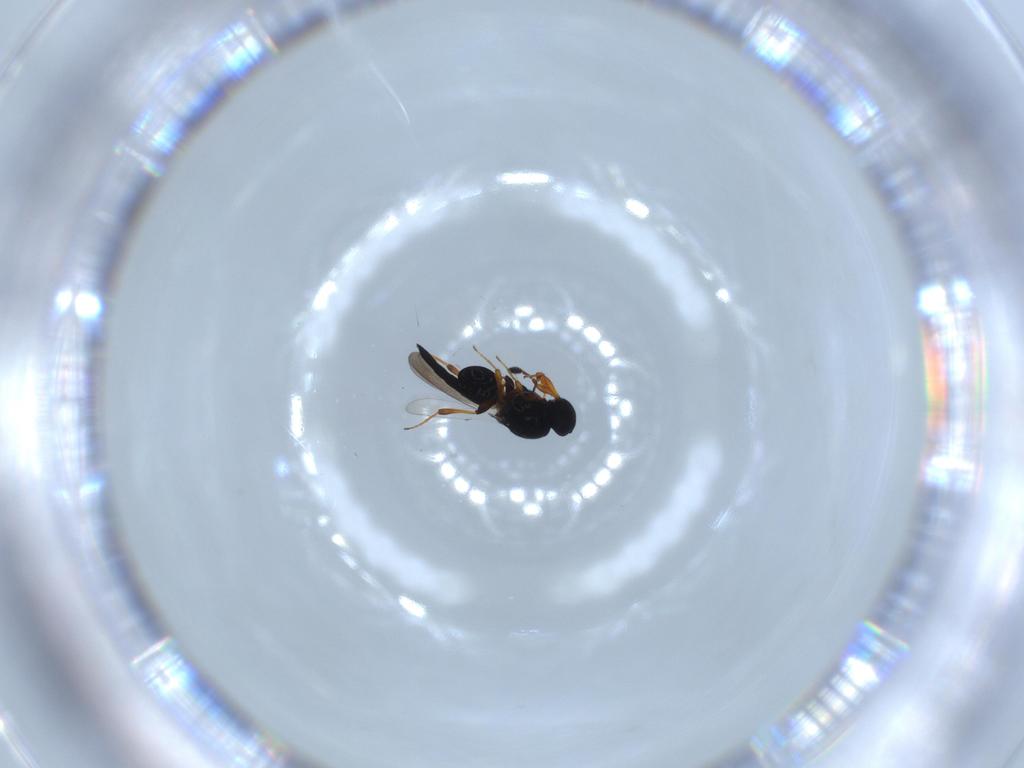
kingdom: Animalia
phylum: Arthropoda
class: Insecta
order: Hymenoptera
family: Platygastridae
